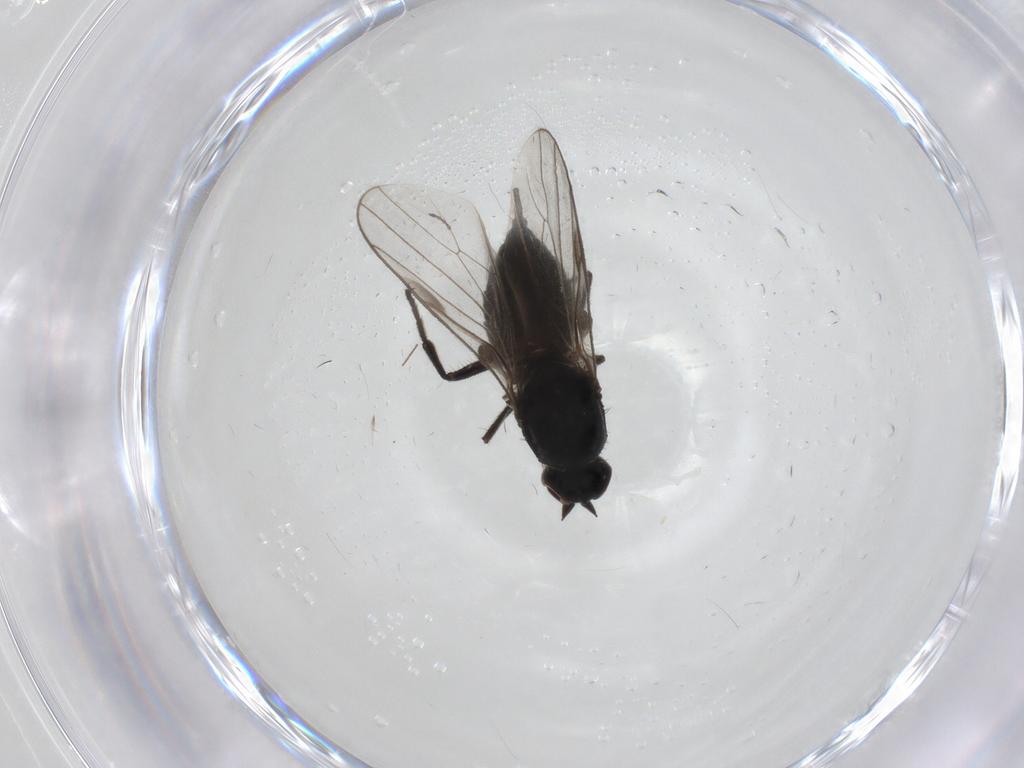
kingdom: Animalia
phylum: Arthropoda
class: Insecta
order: Diptera
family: Hybotidae
